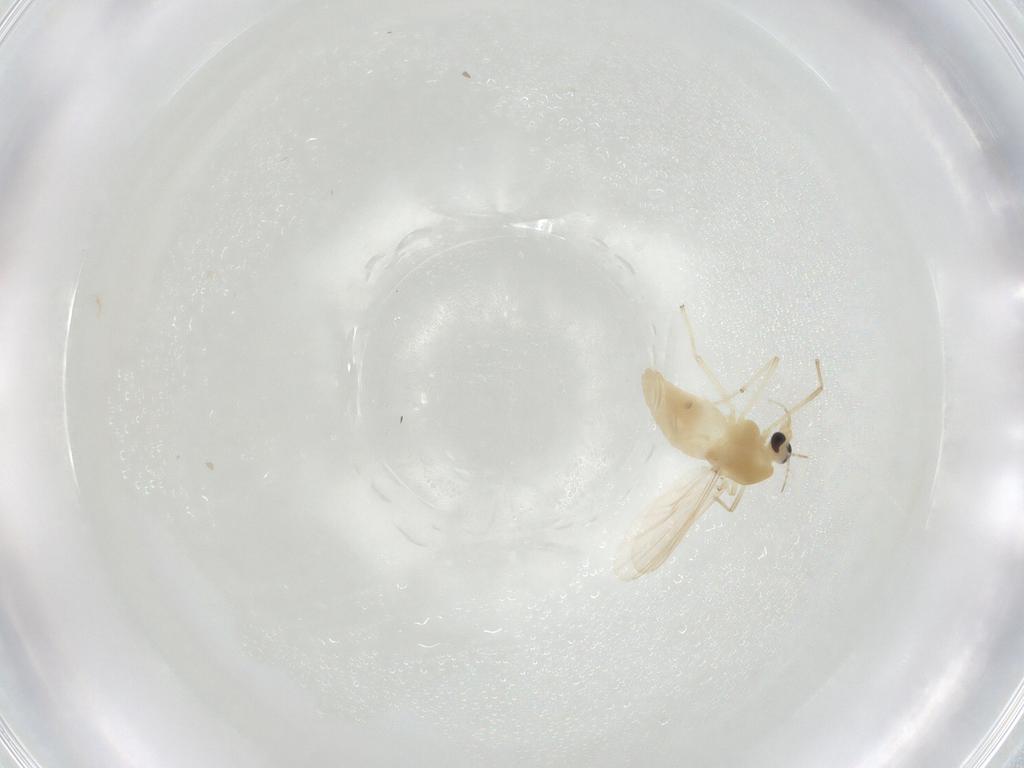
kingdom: Animalia
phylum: Arthropoda
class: Insecta
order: Diptera
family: Chironomidae
